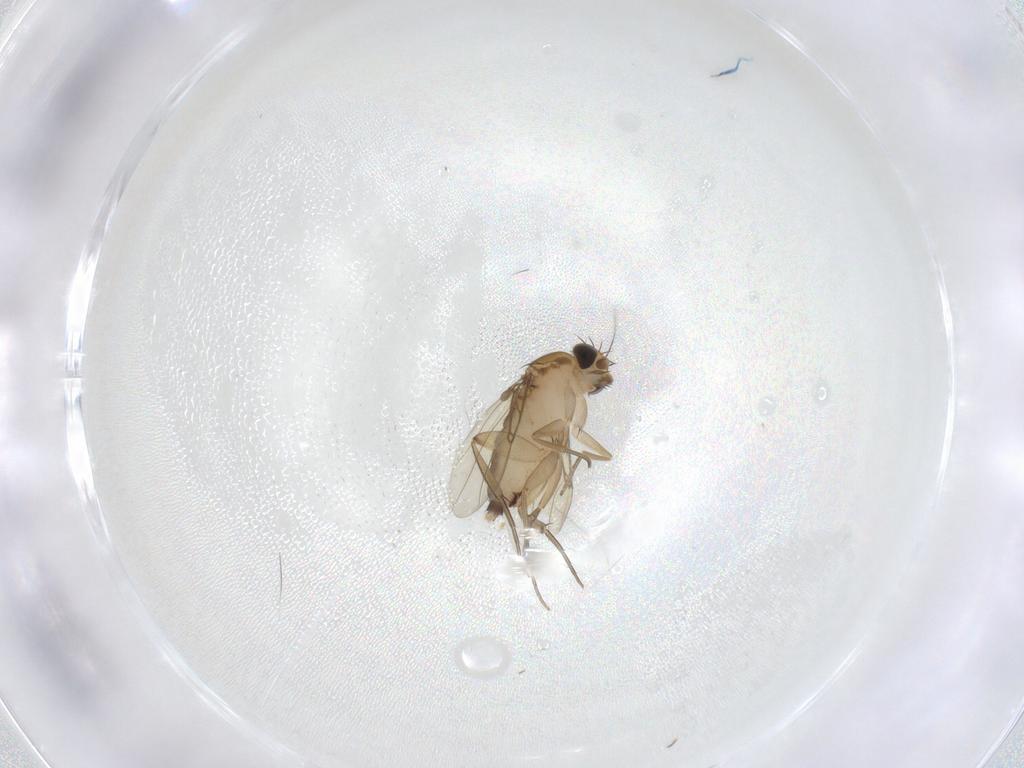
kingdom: Animalia
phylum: Arthropoda
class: Insecta
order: Diptera
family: Phoridae
